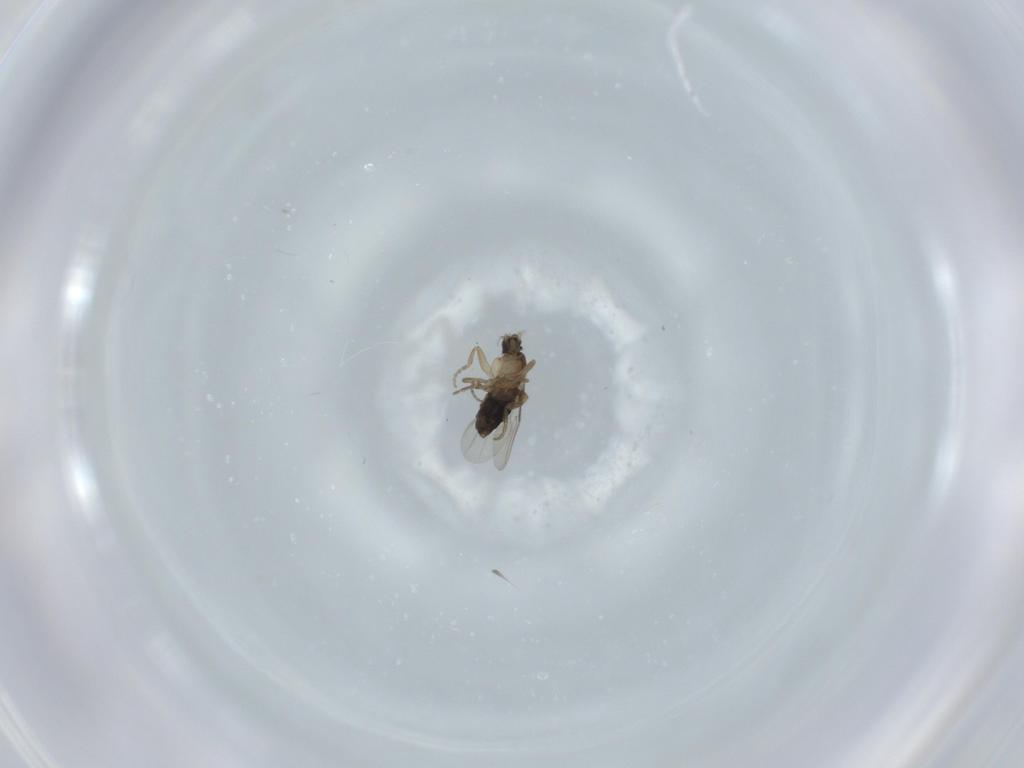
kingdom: Animalia
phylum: Arthropoda
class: Insecta
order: Diptera
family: Phoridae
